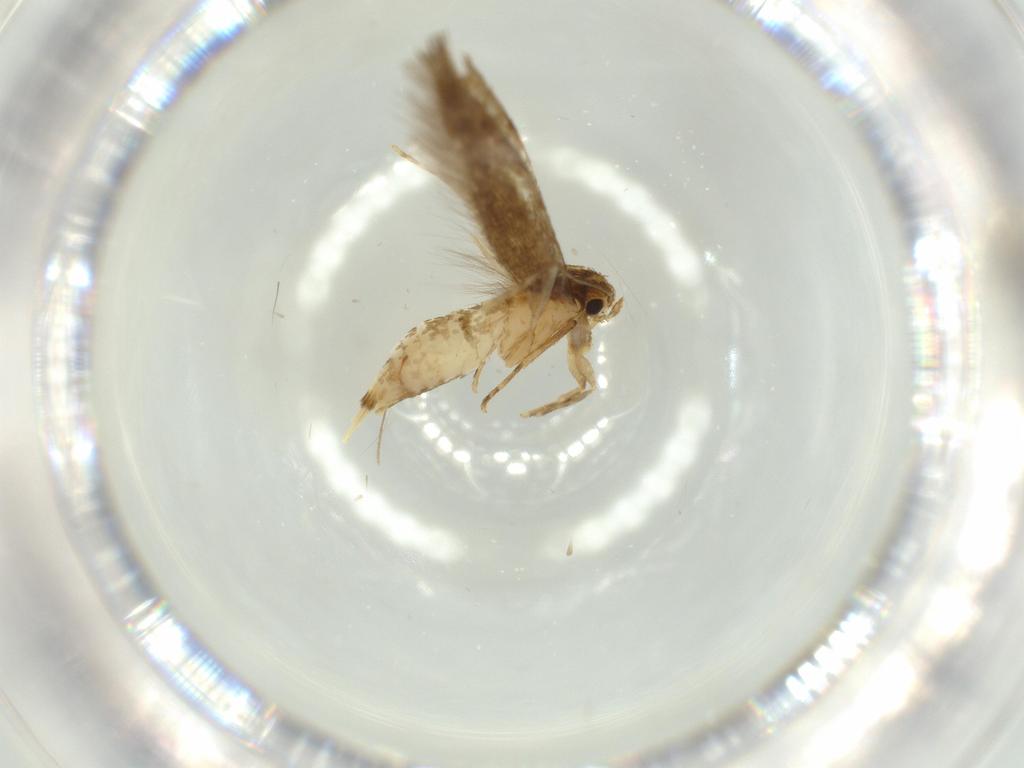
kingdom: Animalia
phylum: Arthropoda
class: Insecta
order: Lepidoptera
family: Tineidae
